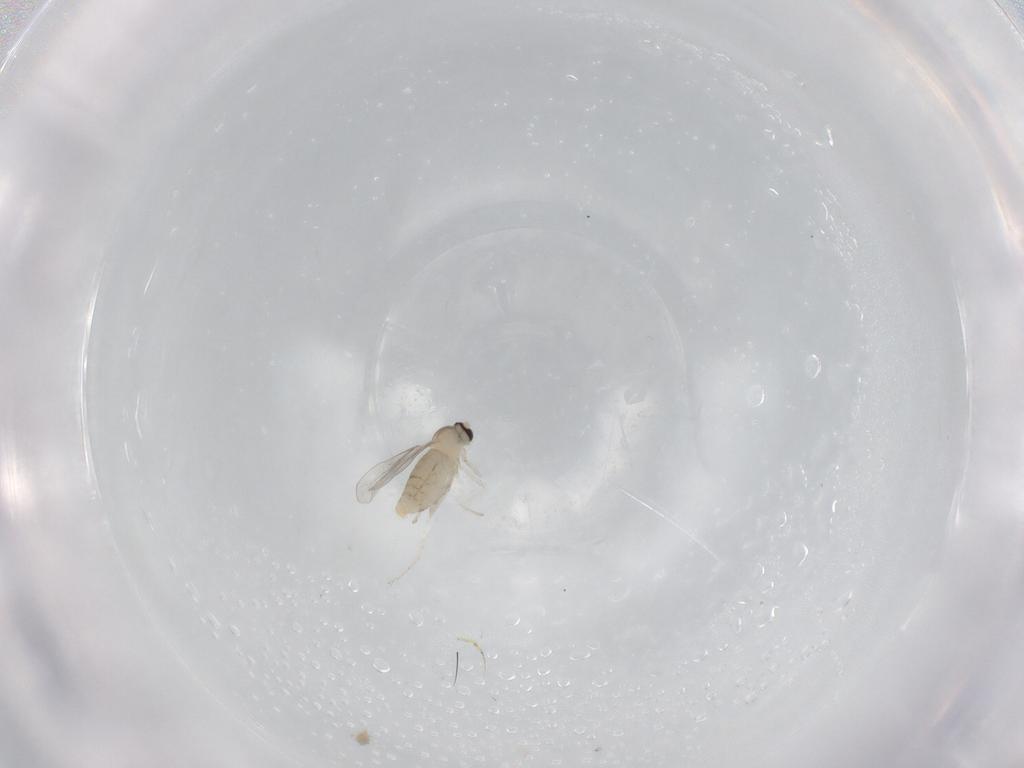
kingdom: Animalia
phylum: Arthropoda
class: Insecta
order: Diptera
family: Cecidomyiidae
